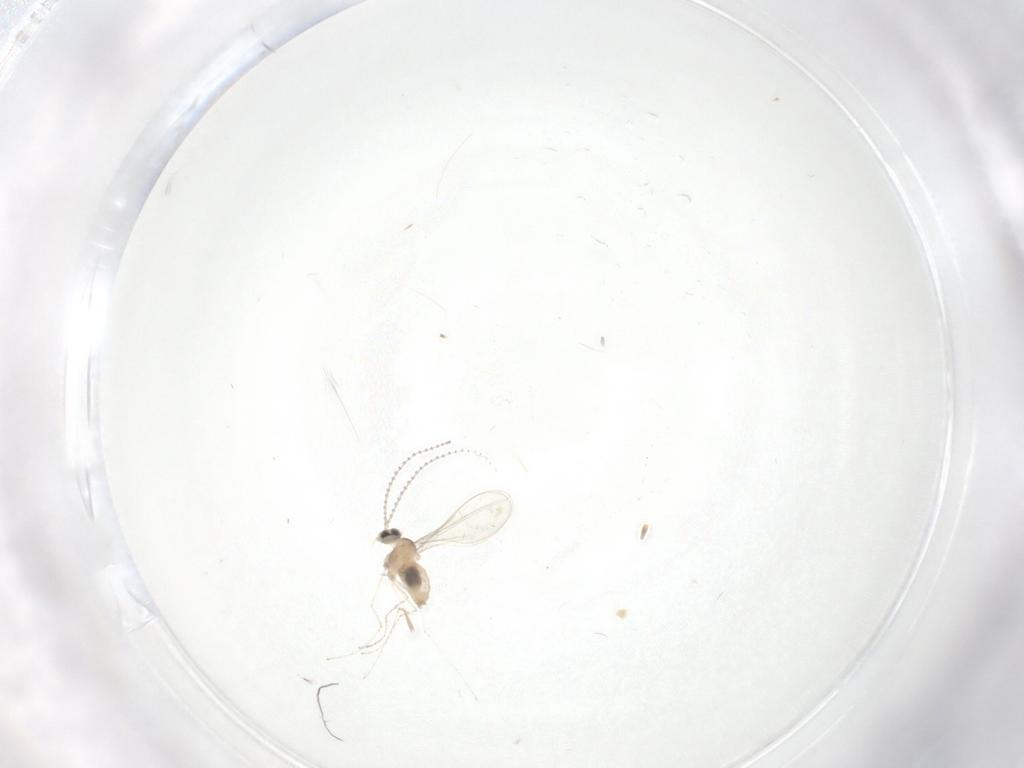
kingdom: Animalia
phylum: Arthropoda
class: Insecta
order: Diptera
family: Cecidomyiidae
